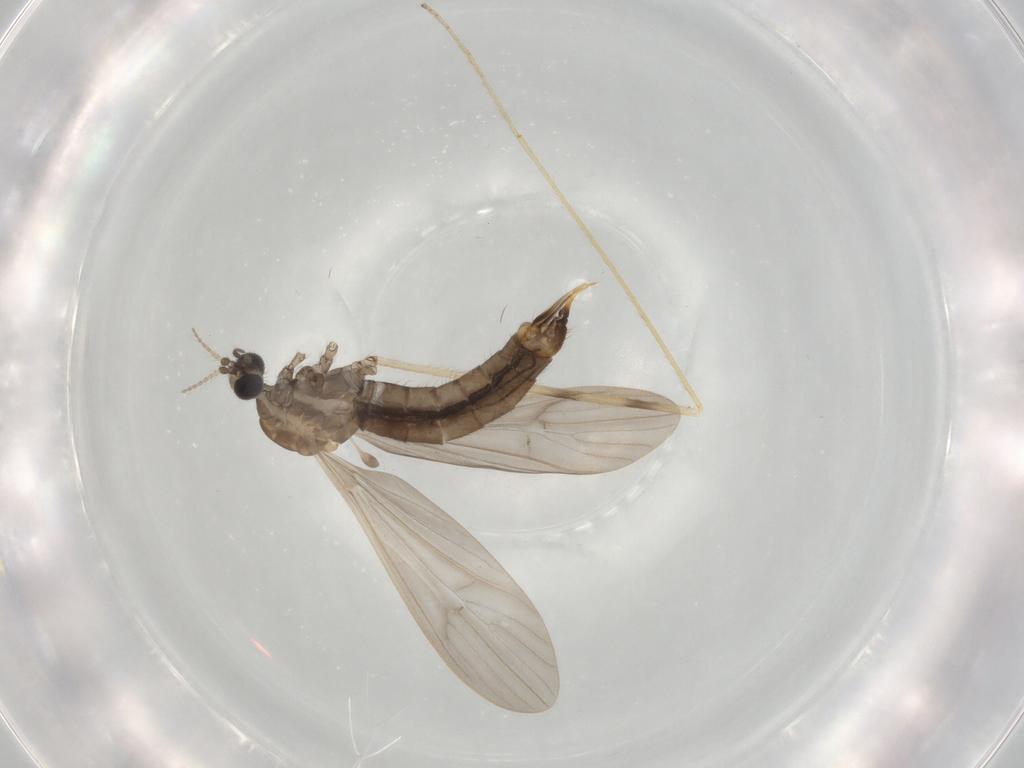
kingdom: Animalia
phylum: Arthropoda
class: Insecta
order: Diptera
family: Limoniidae
